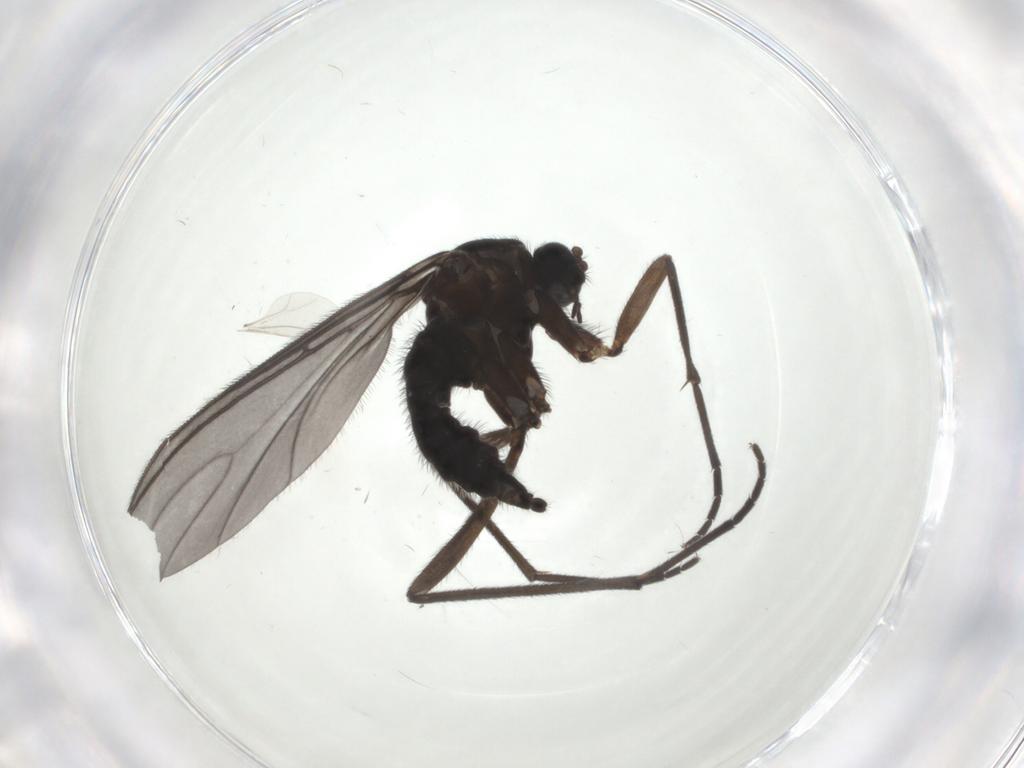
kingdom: Animalia
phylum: Arthropoda
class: Insecta
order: Diptera
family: Sciaridae
